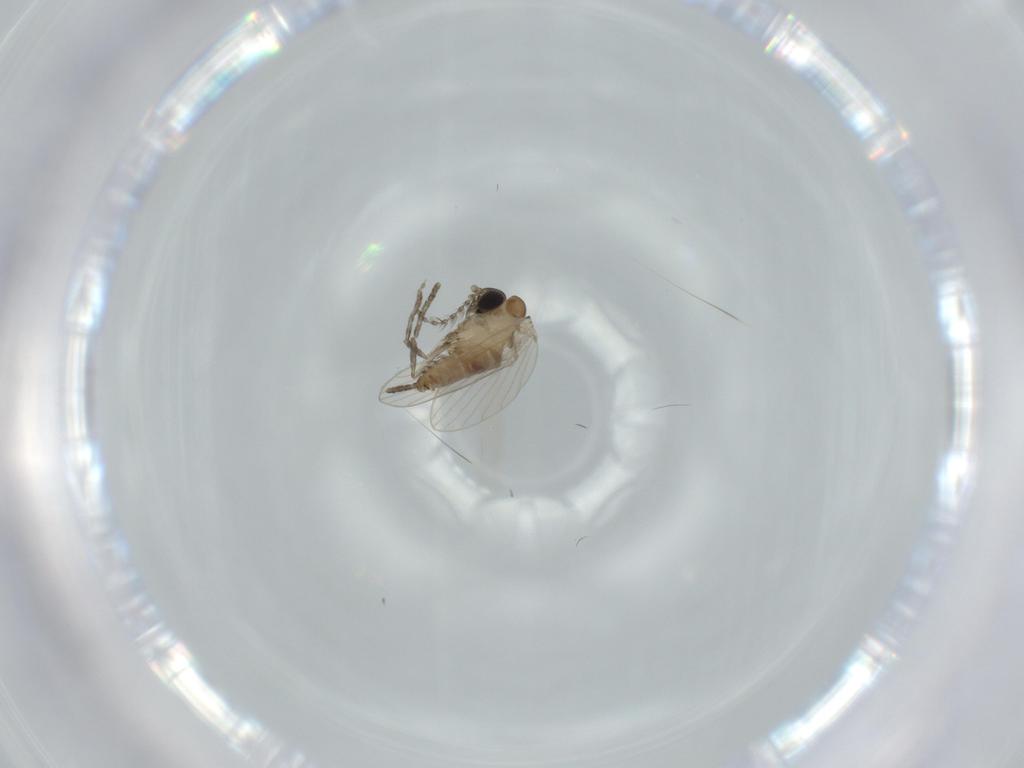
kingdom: Animalia
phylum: Arthropoda
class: Insecta
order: Diptera
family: Psychodidae
